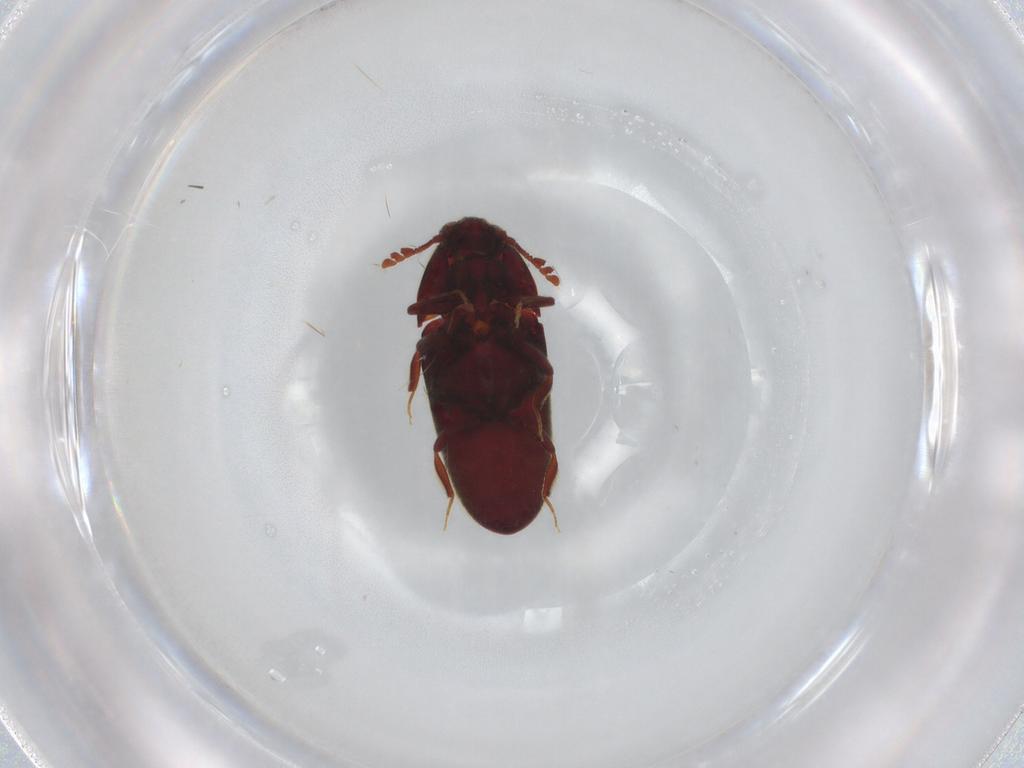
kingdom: Animalia
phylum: Arthropoda
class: Insecta
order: Coleoptera
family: Throscidae
